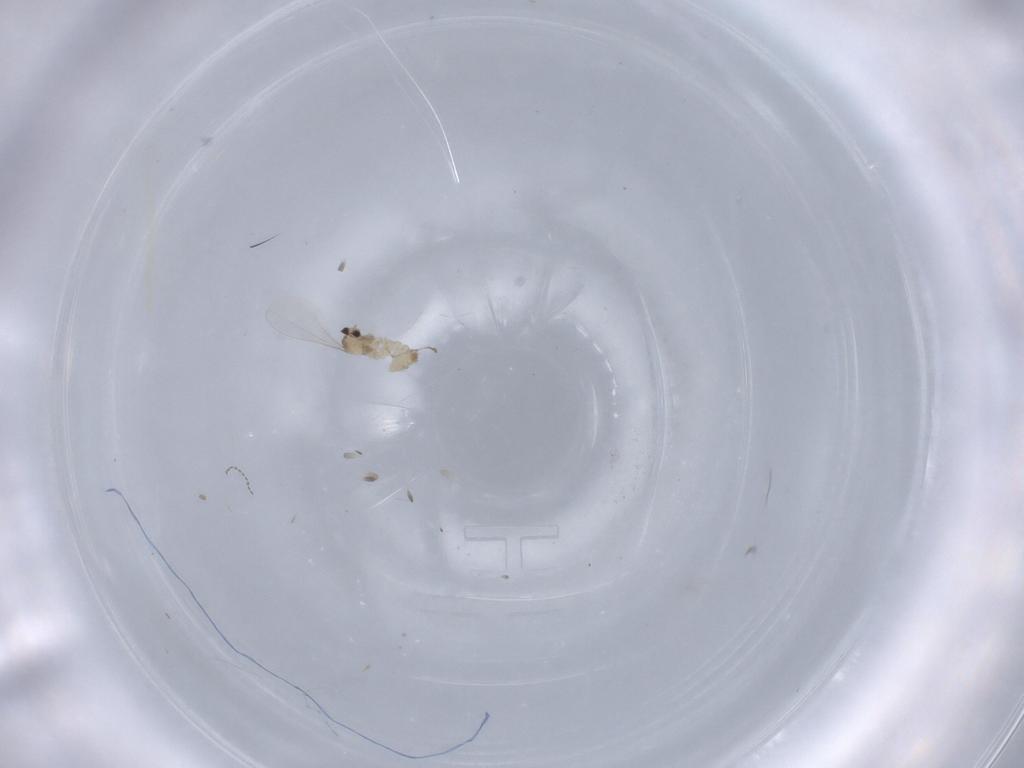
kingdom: Animalia
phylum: Arthropoda
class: Insecta
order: Diptera
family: Cecidomyiidae
